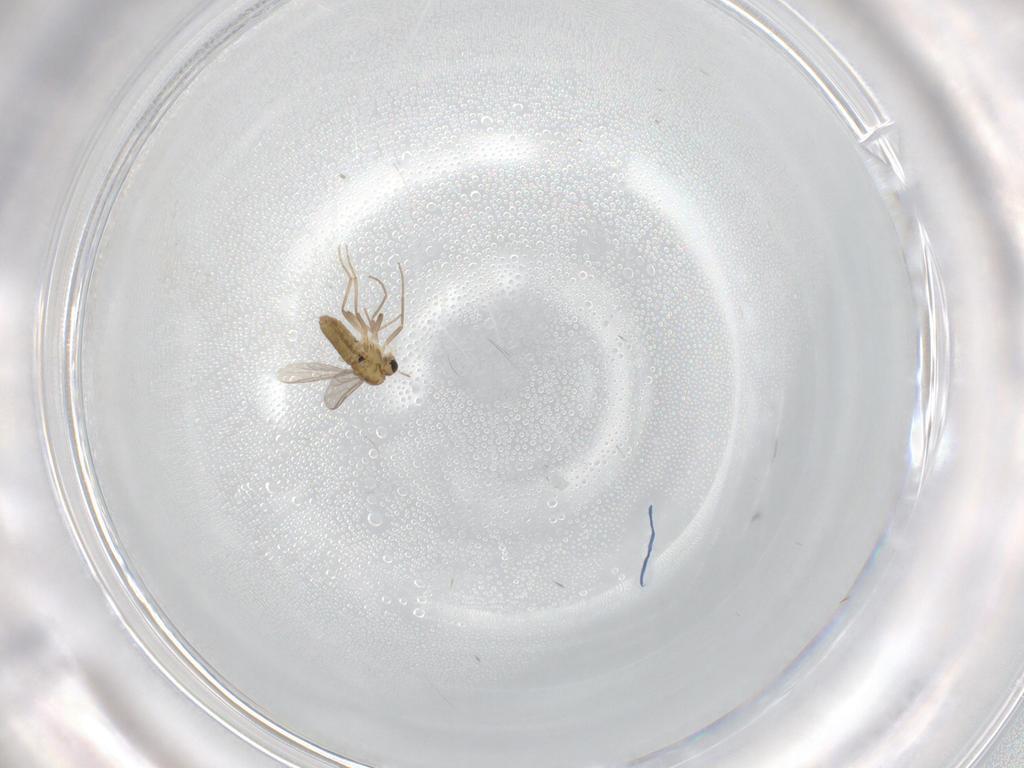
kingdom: Animalia
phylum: Arthropoda
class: Insecta
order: Diptera
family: Chironomidae
